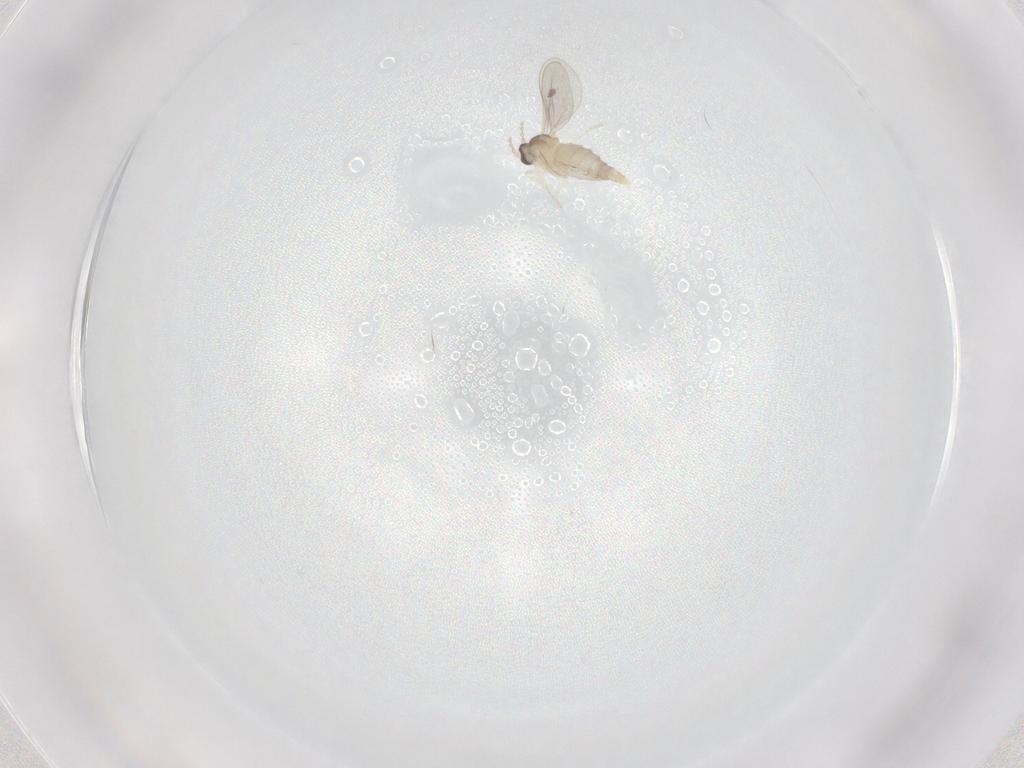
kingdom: Animalia
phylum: Arthropoda
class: Insecta
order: Diptera
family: Cecidomyiidae
